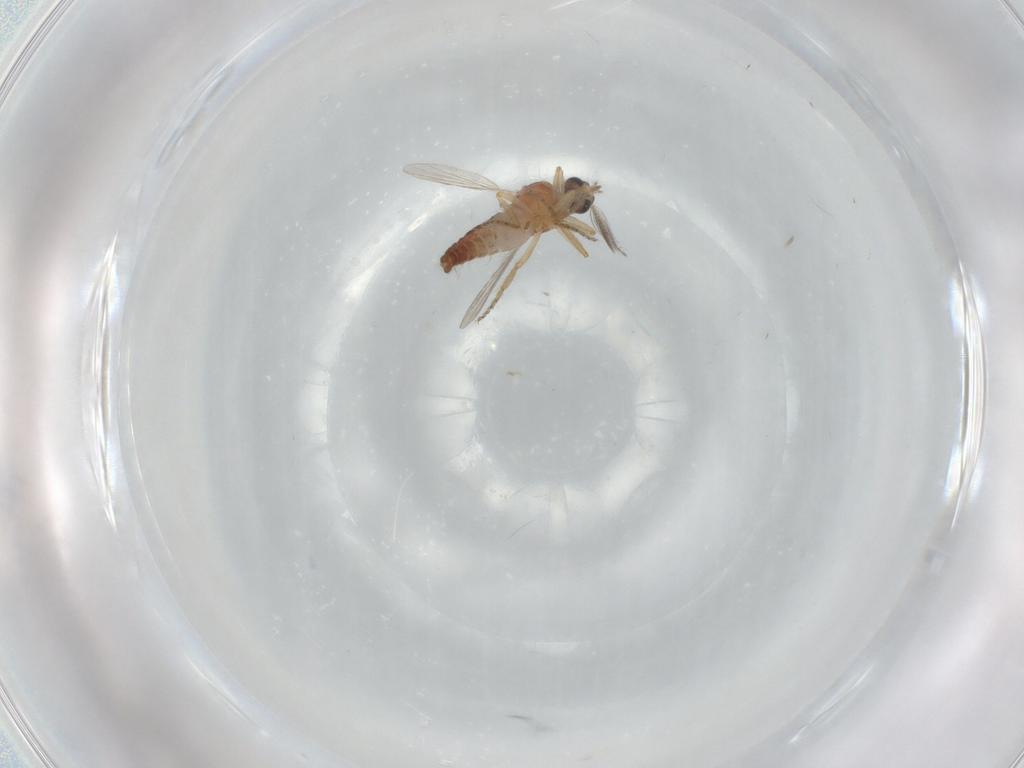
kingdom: Animalia
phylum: Arthropoda
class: Insecta
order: Diptera
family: Ceratopogonidae
